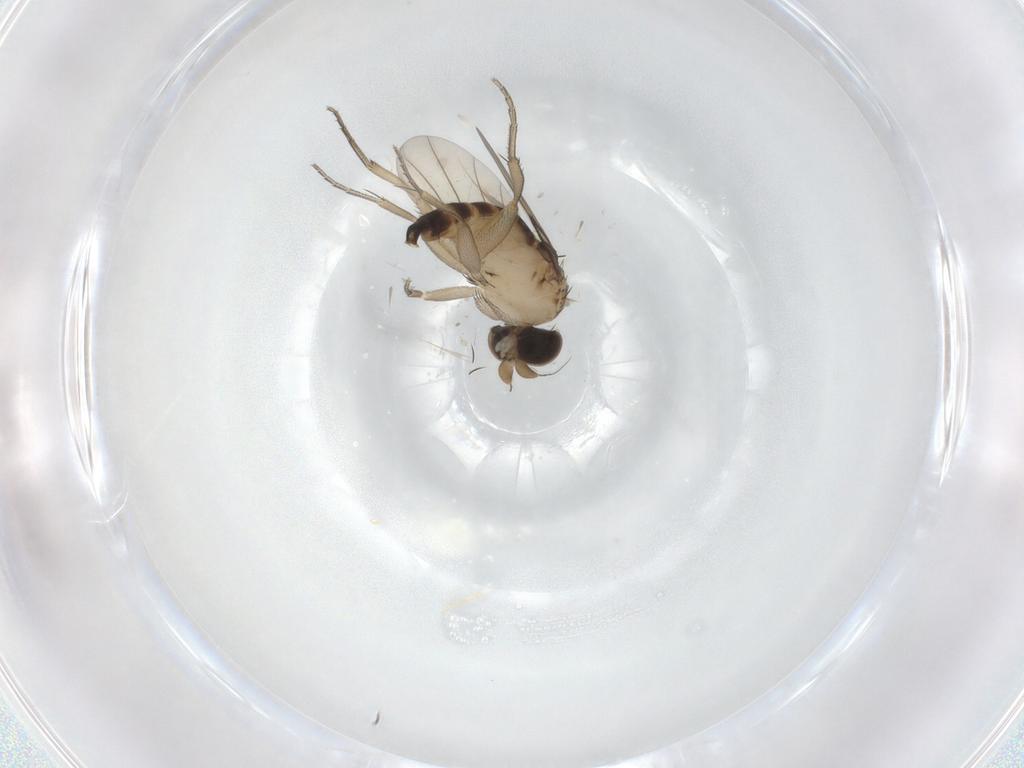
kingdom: Animalia
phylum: Arthropoda
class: Insecta
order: Diptera
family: Phoridae
